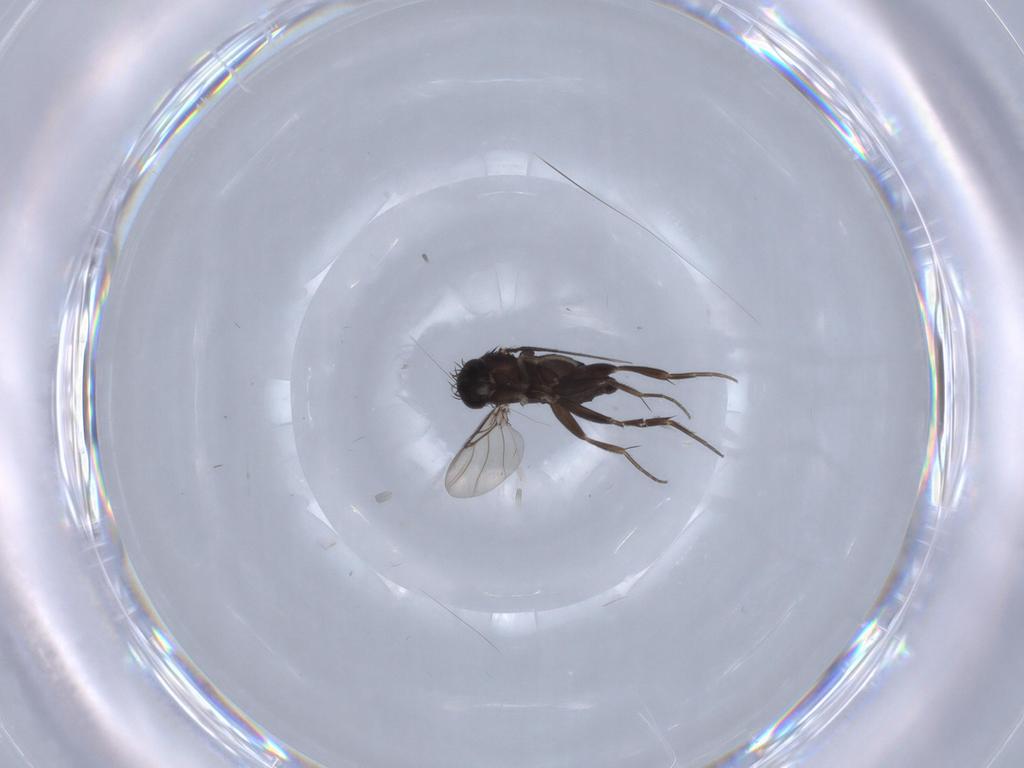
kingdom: Animalia
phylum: Arthropoda
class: Insecta
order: Diptera
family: Phoridae
